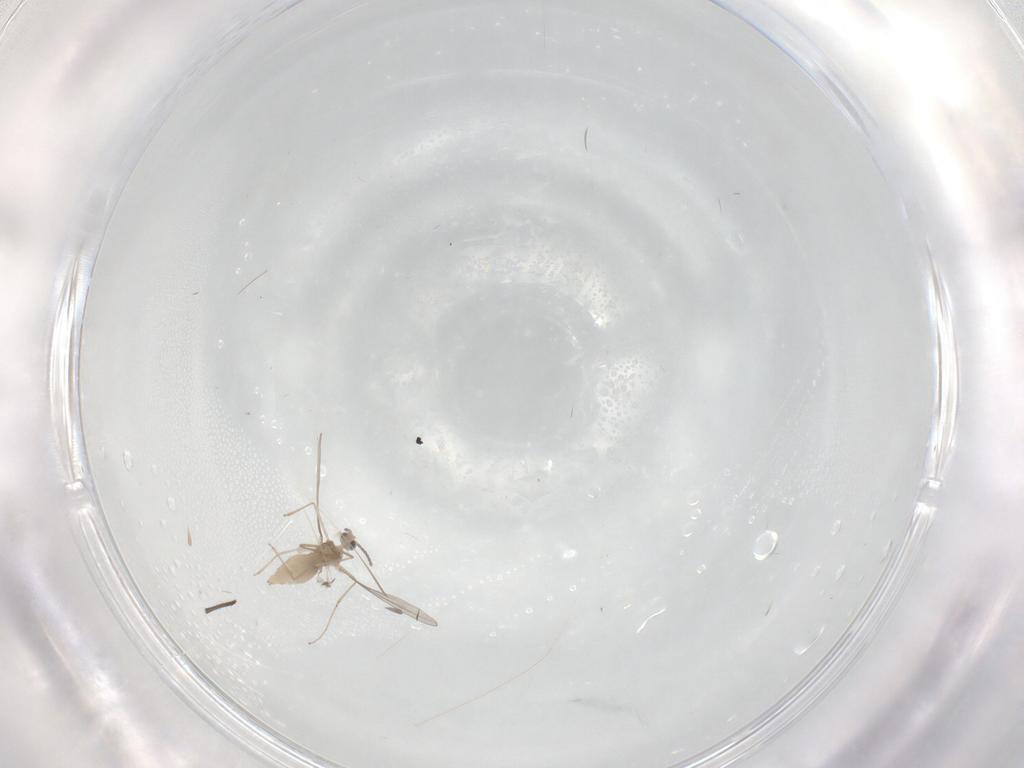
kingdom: Animalia
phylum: Arthropoda
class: Insecta
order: Diptera
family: Cecidomyiidae
